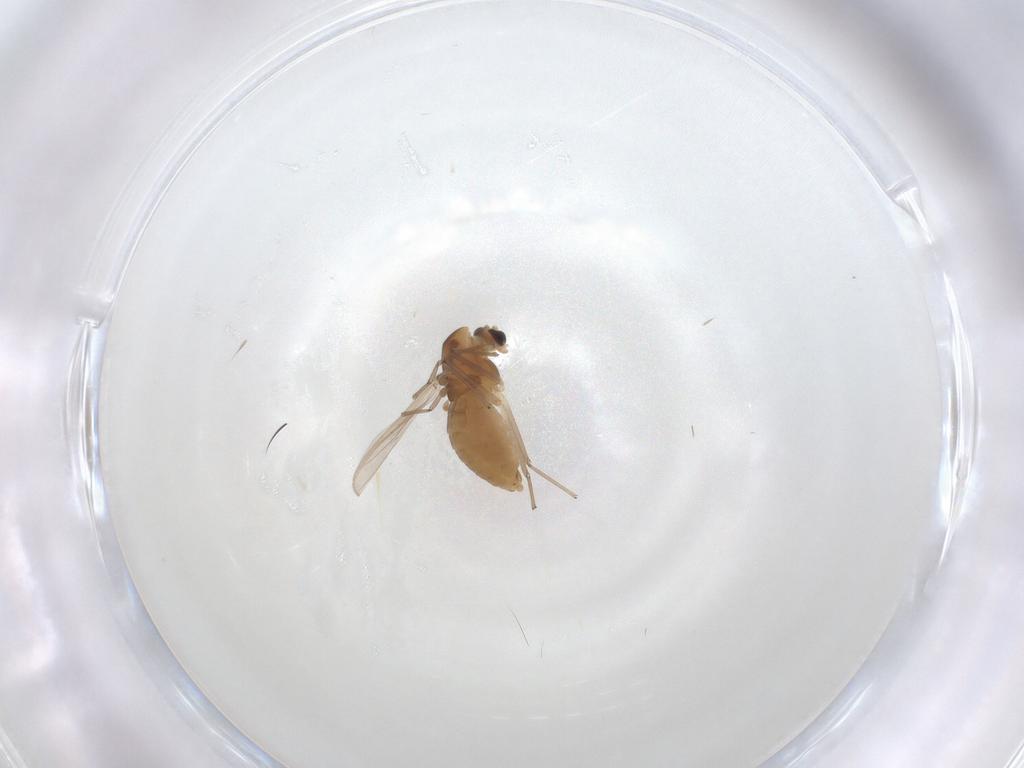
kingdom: Animalia
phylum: Arthropoda
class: Insecta
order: Diptera
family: Chironomidae
